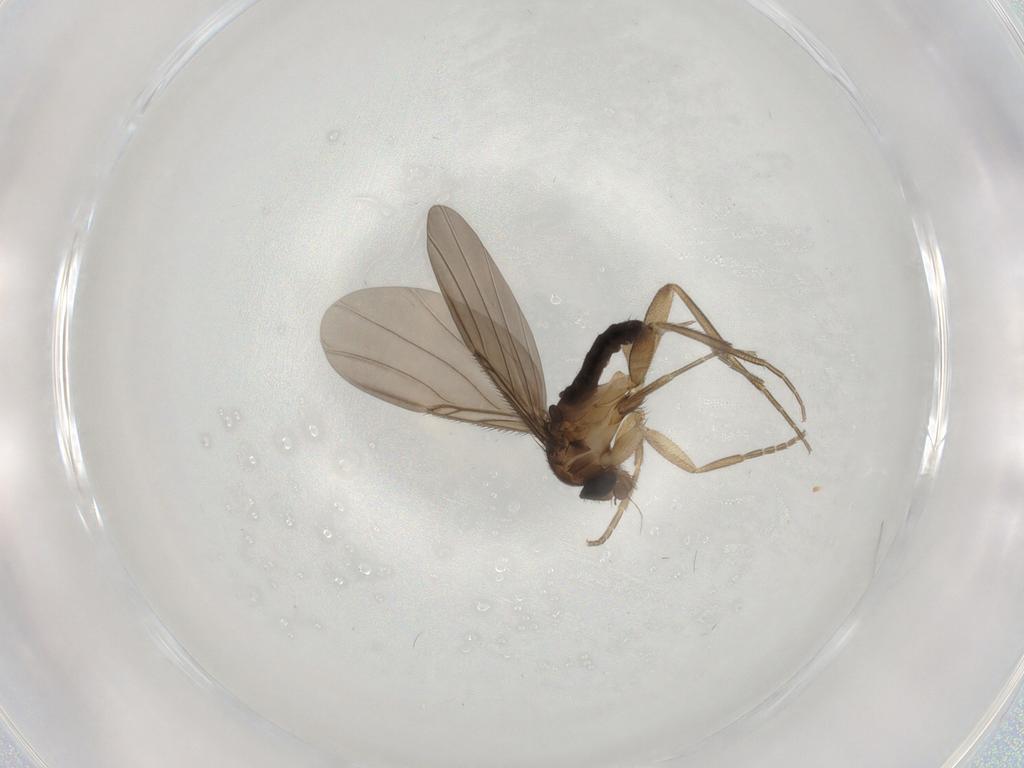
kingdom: Animalia
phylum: Arthropoda
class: Insecta
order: Diptera
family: Phoridae
